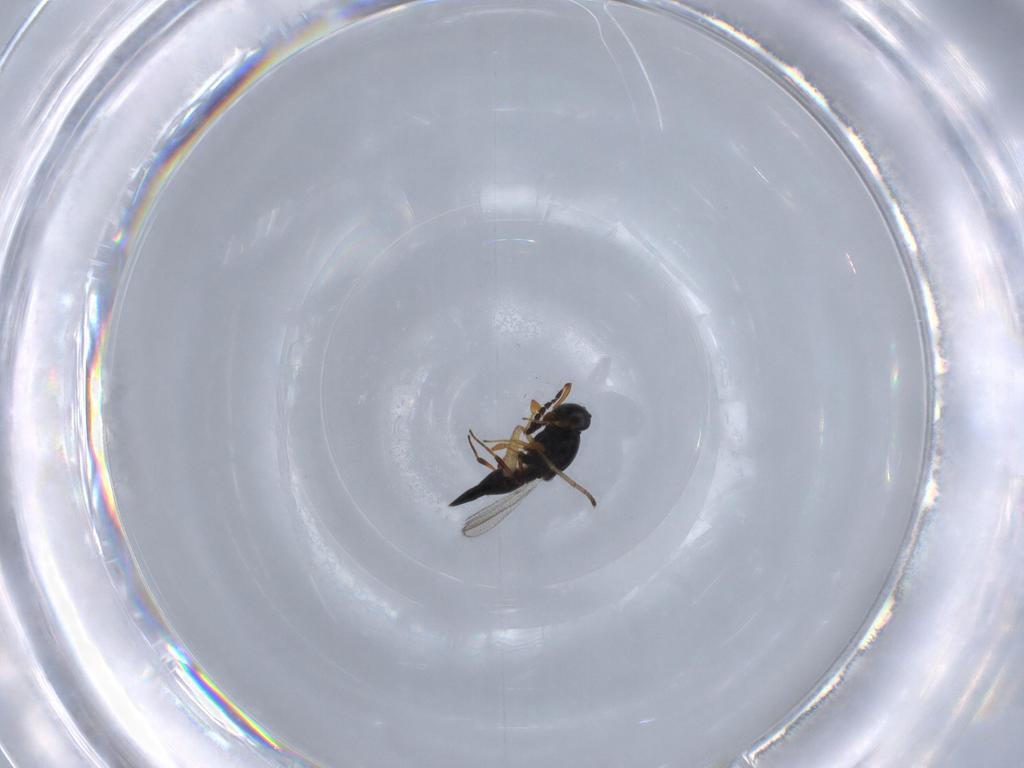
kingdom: Animalia
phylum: Arthropoda
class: Insecta
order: Hymenoptera
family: Platygastridae
